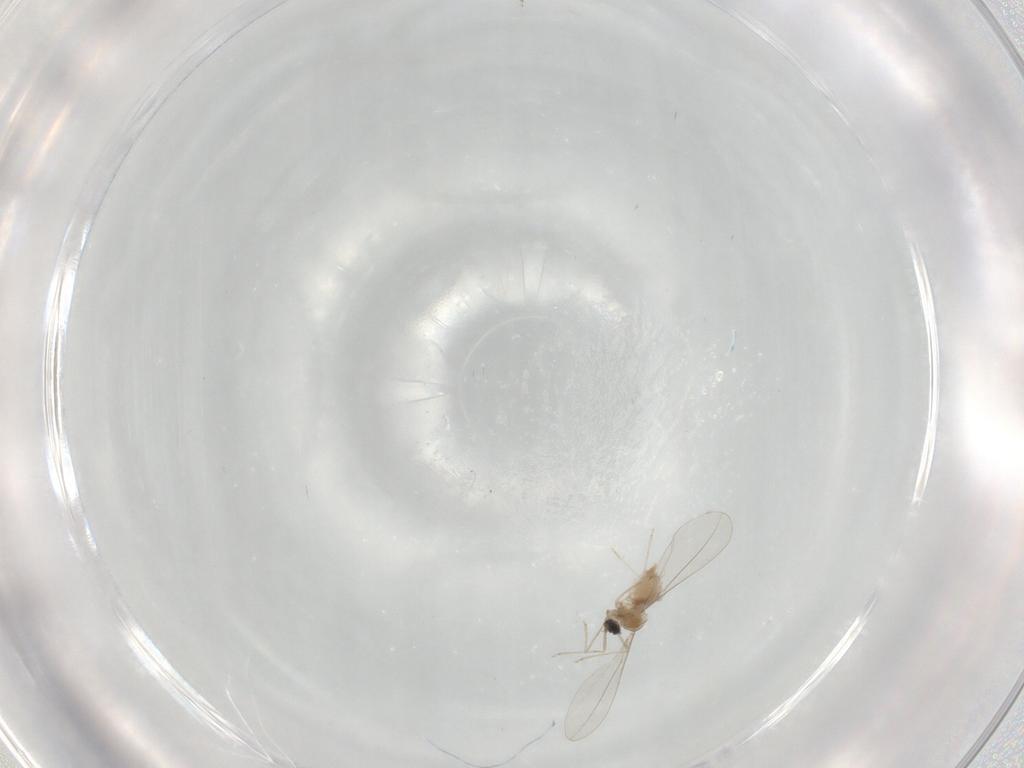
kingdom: Animalia
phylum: Arthropoda
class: Insecta
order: Diptera
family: Cecidomyiidae
